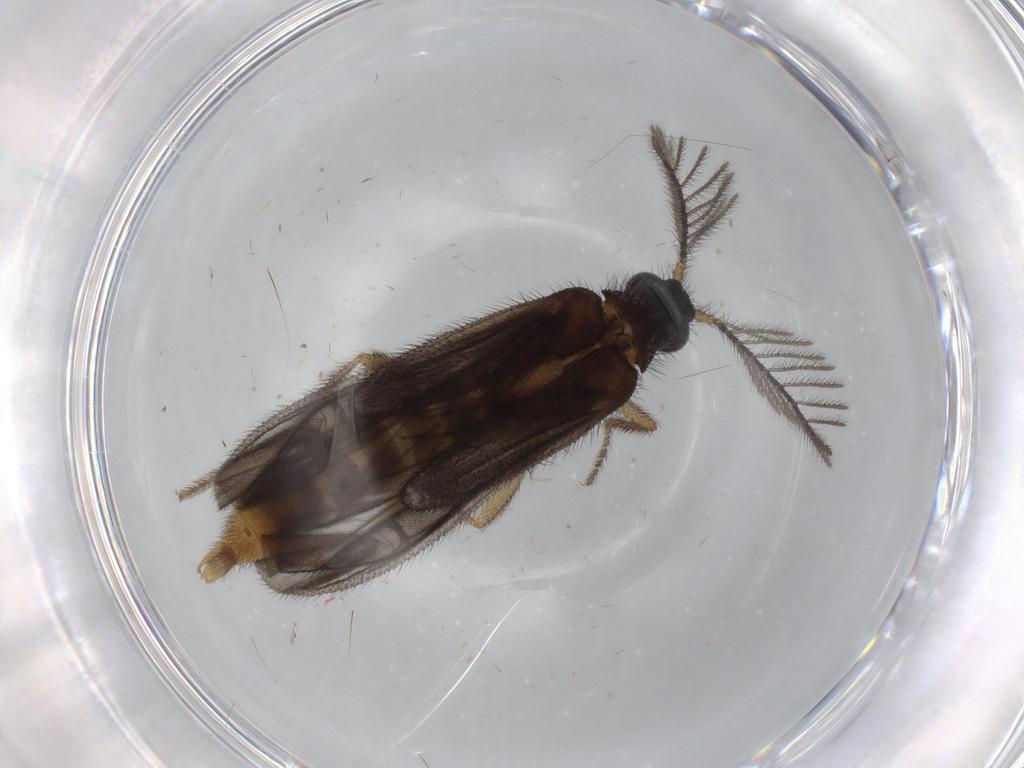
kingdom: Animalia
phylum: Arthropoda
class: Insecta
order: Coleoptera
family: Phengodidae
